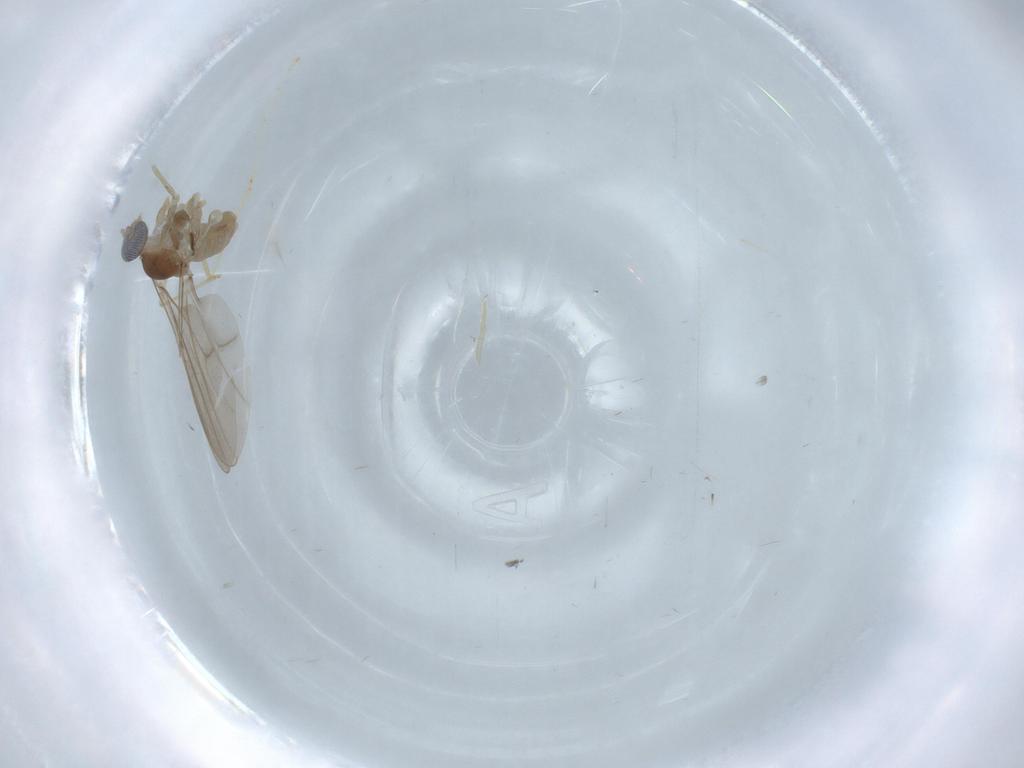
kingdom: Animalia
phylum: Arthropoda
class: Insecta
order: Diptera
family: Cecidomyiidae
